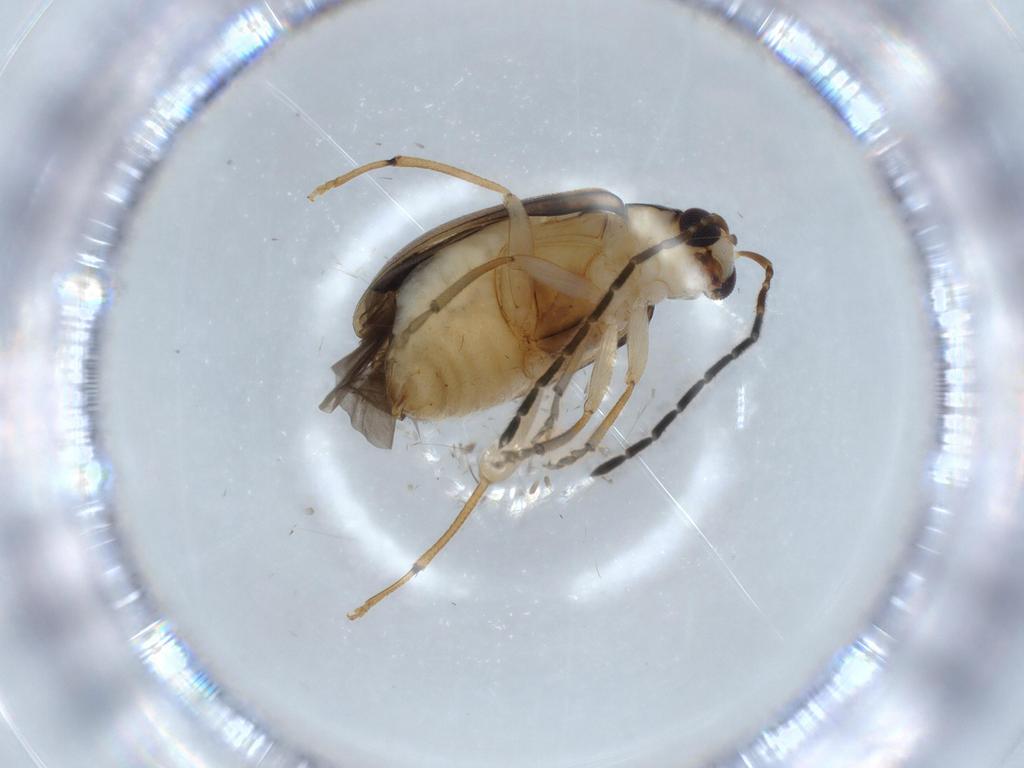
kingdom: Animalia
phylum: Arthropoda
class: Insecta
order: Coleoptera
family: Chrysomelidae
